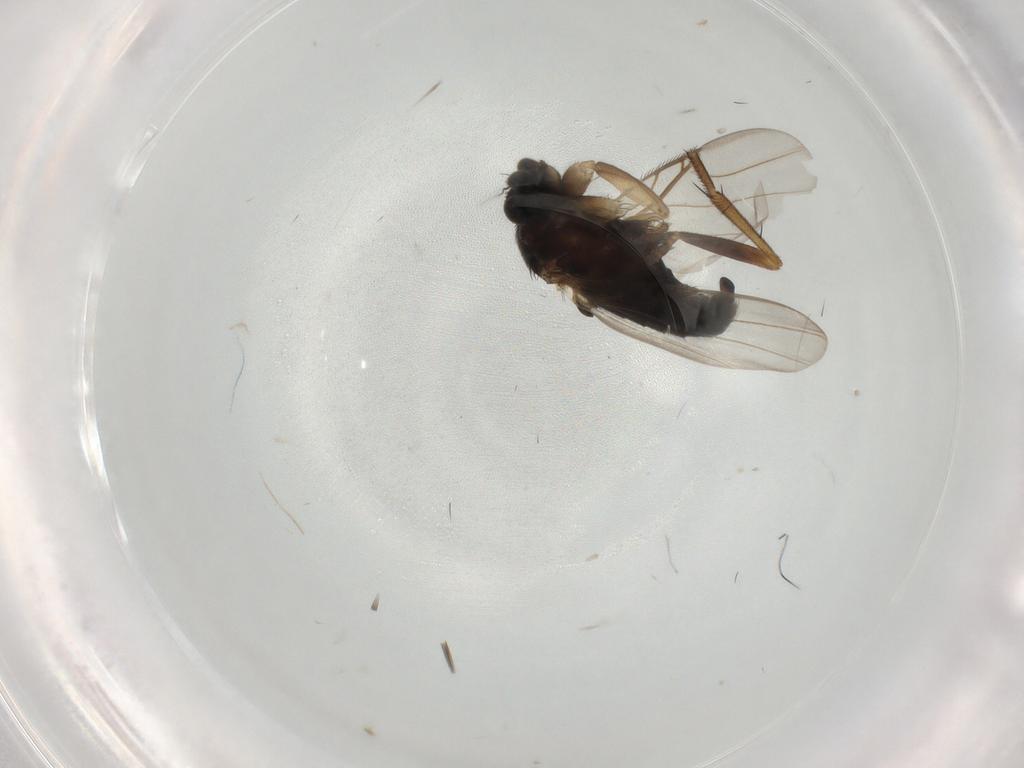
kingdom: Animalia
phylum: Arthropoda
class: Insecta
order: Diptera
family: Phoridae
